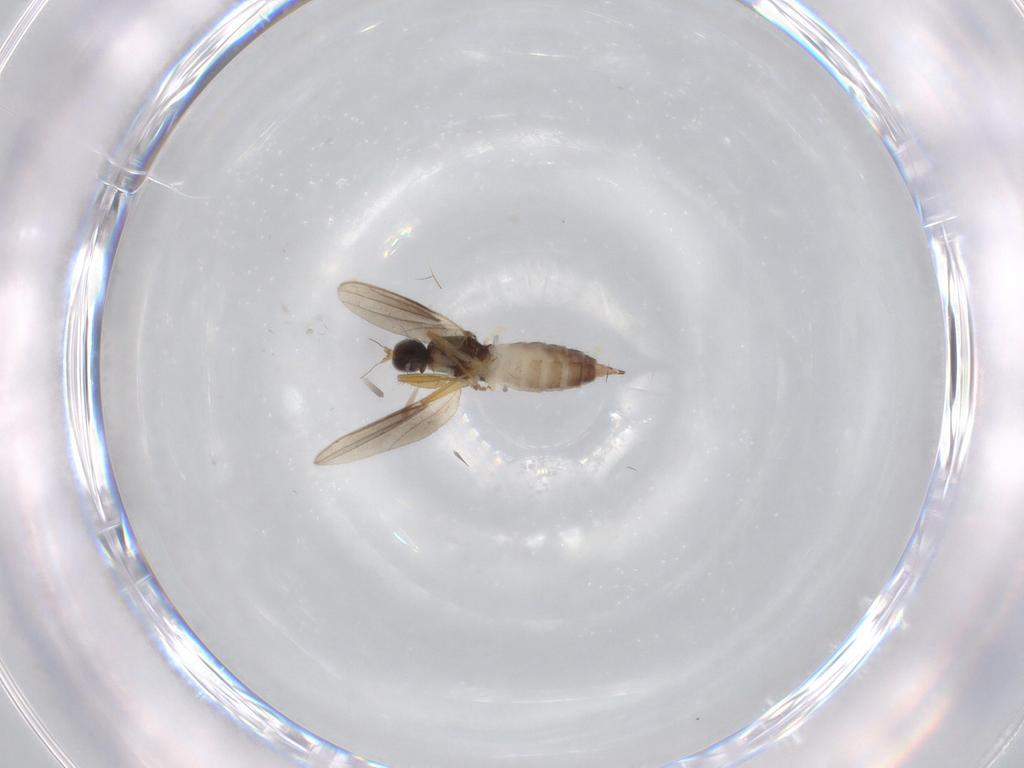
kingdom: Animalia
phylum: Arthropoda
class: Insecta
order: Diptera
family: Hybotidae
